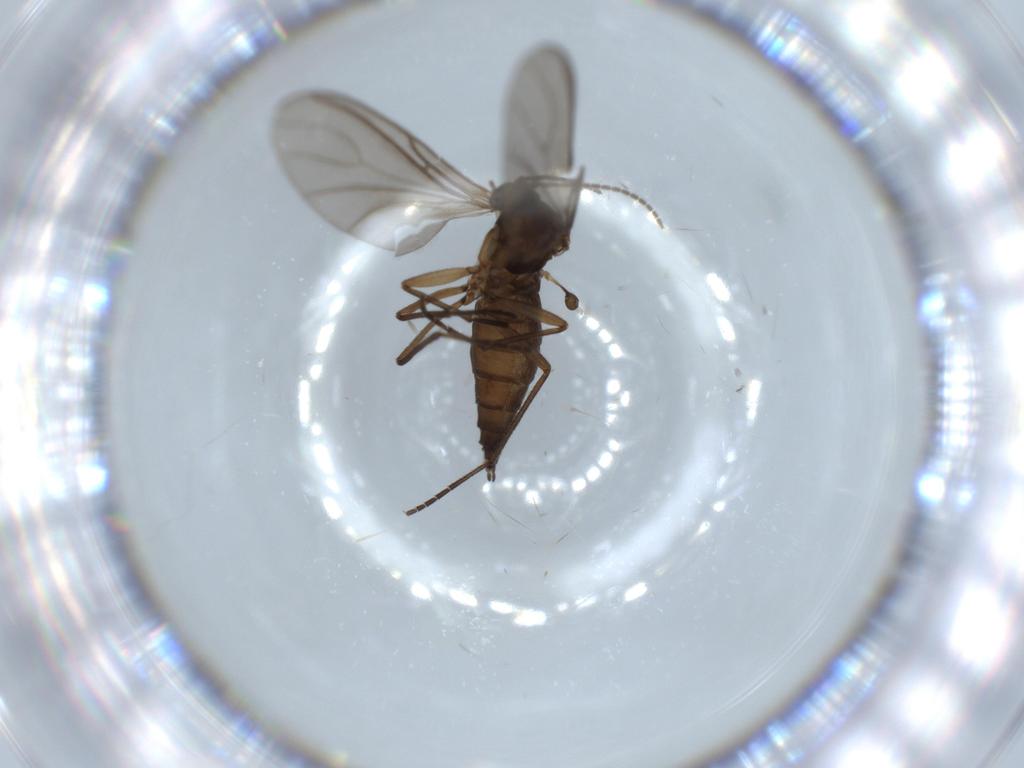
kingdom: Animalia
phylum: Arthropoda
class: Insecta
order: Diptera
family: Sciaridae
